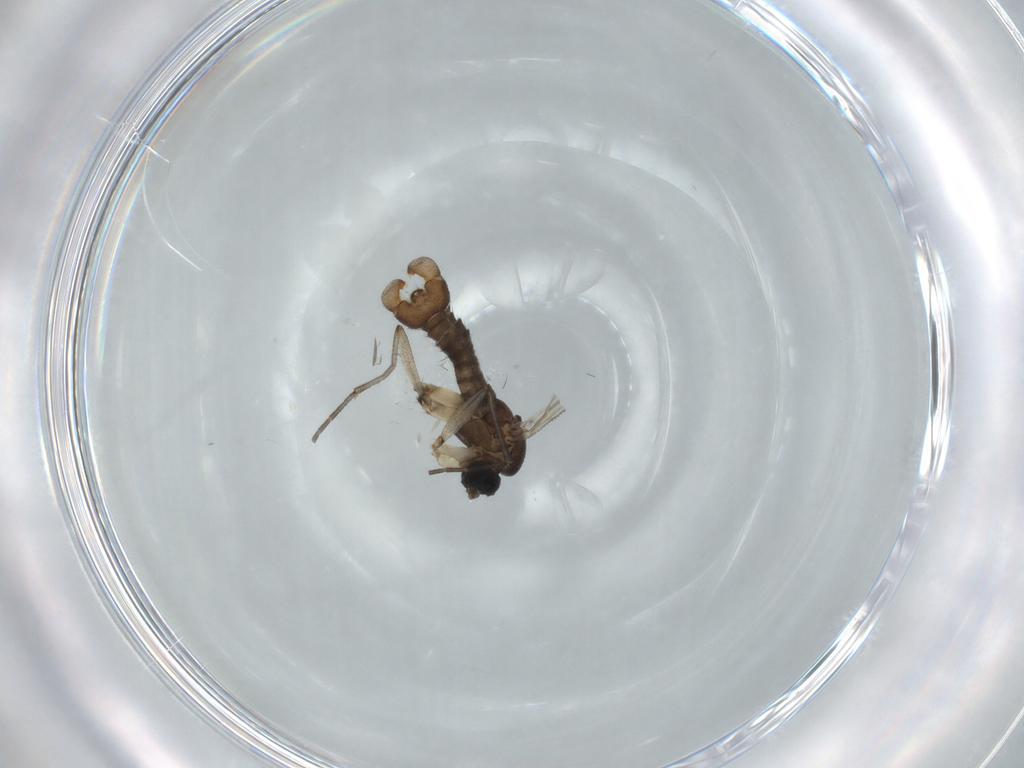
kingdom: Animalia
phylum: Arthropoda
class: Insecta
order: Diptera
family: Sciaridae
